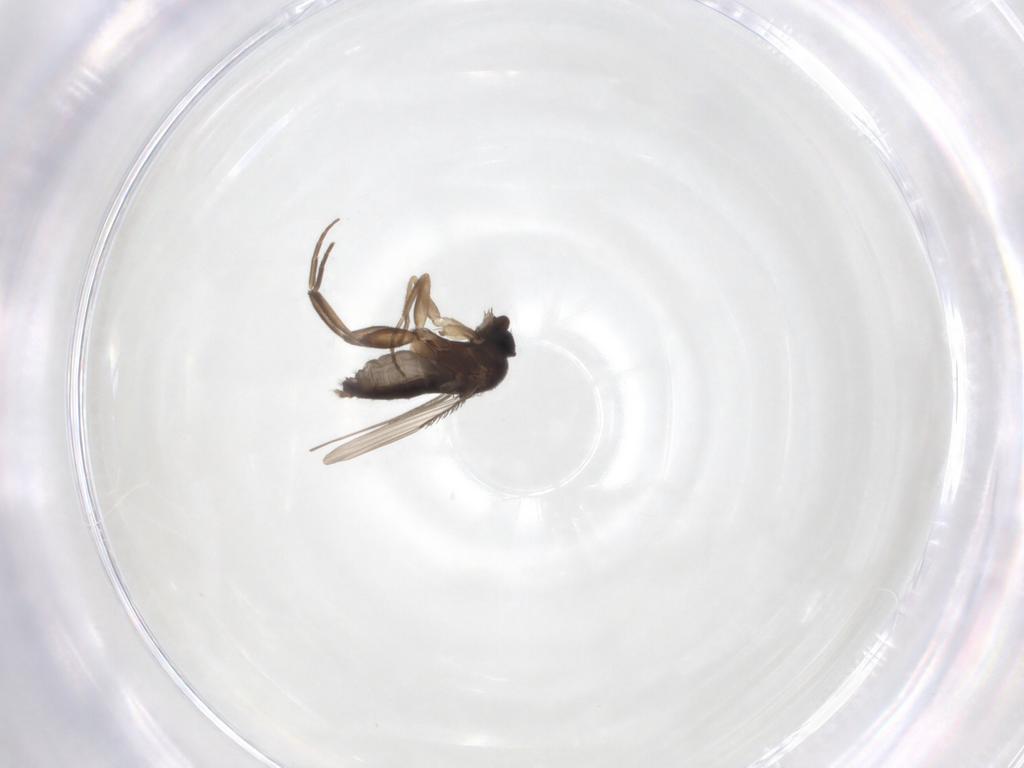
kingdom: Animalia
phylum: Arthropoda
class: Insecta
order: Diptera
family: Phoridae
